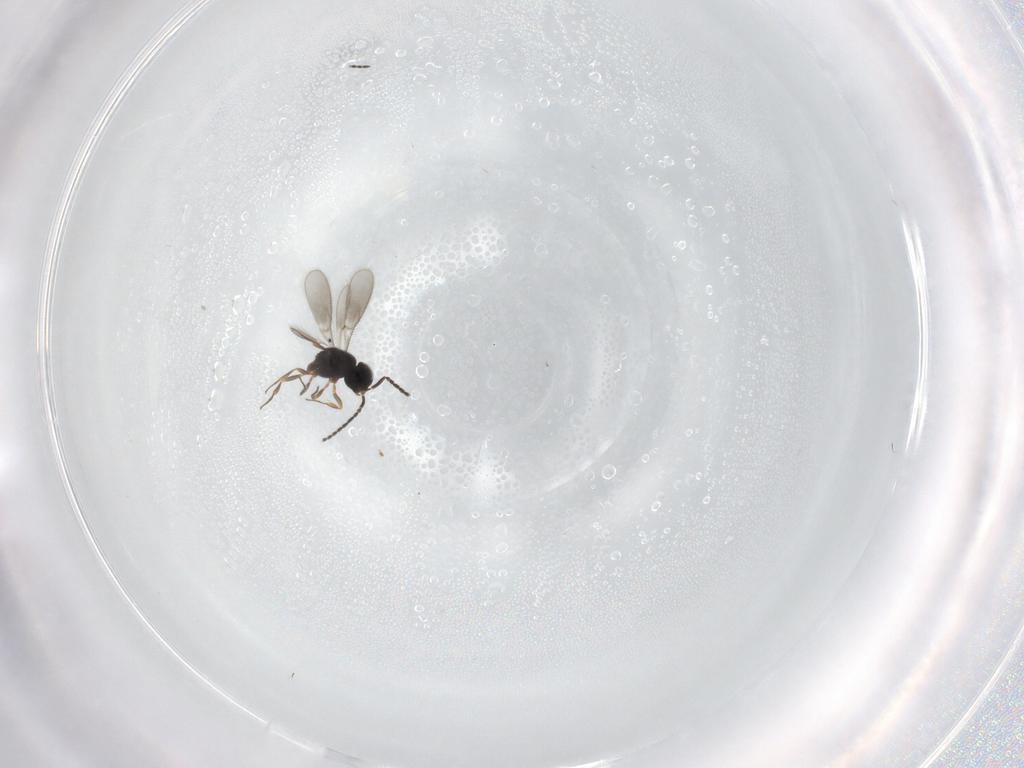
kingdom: Animalia
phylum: Arthropoda
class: Insecta
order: Hymenoptera
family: Scelionidae
